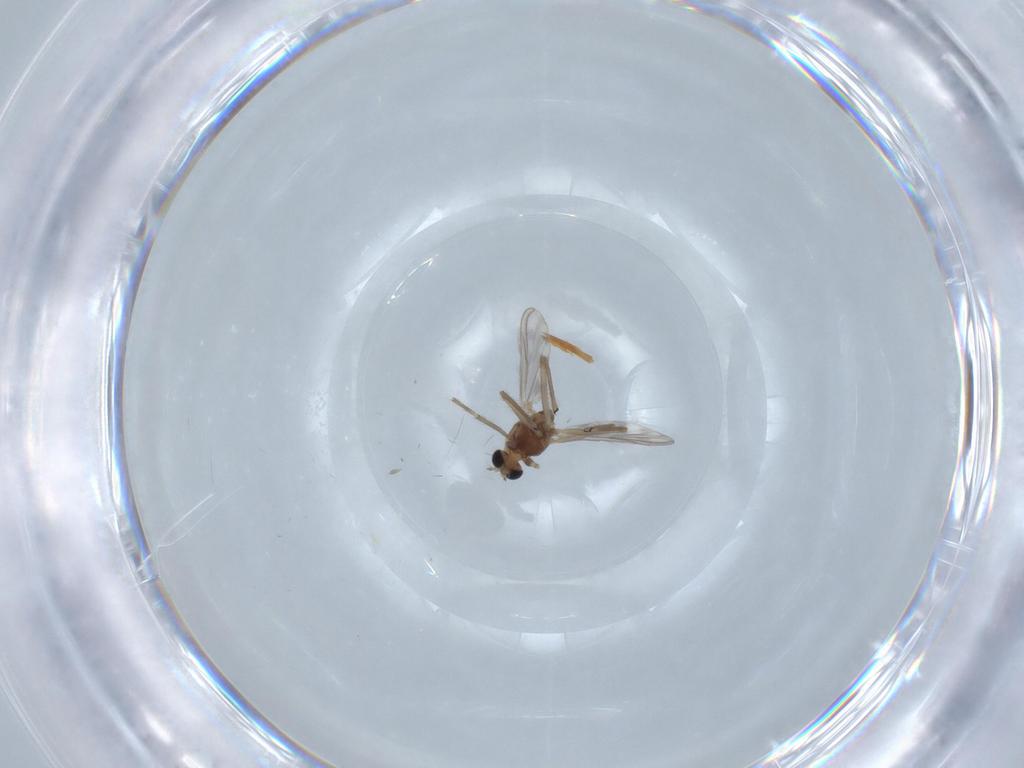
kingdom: Animalia
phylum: Arthropoda
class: Insecta
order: Diptera
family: Chironomidae
